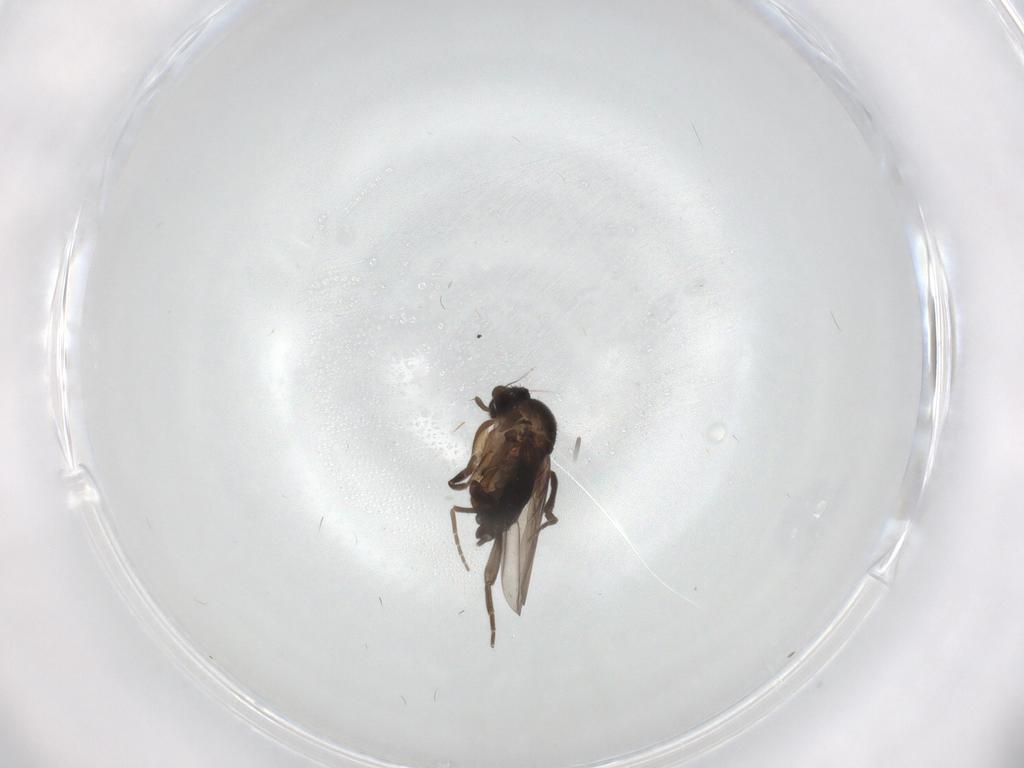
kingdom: Animalia
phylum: Arthropoda
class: Insecta
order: Diptera
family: Phoridae
